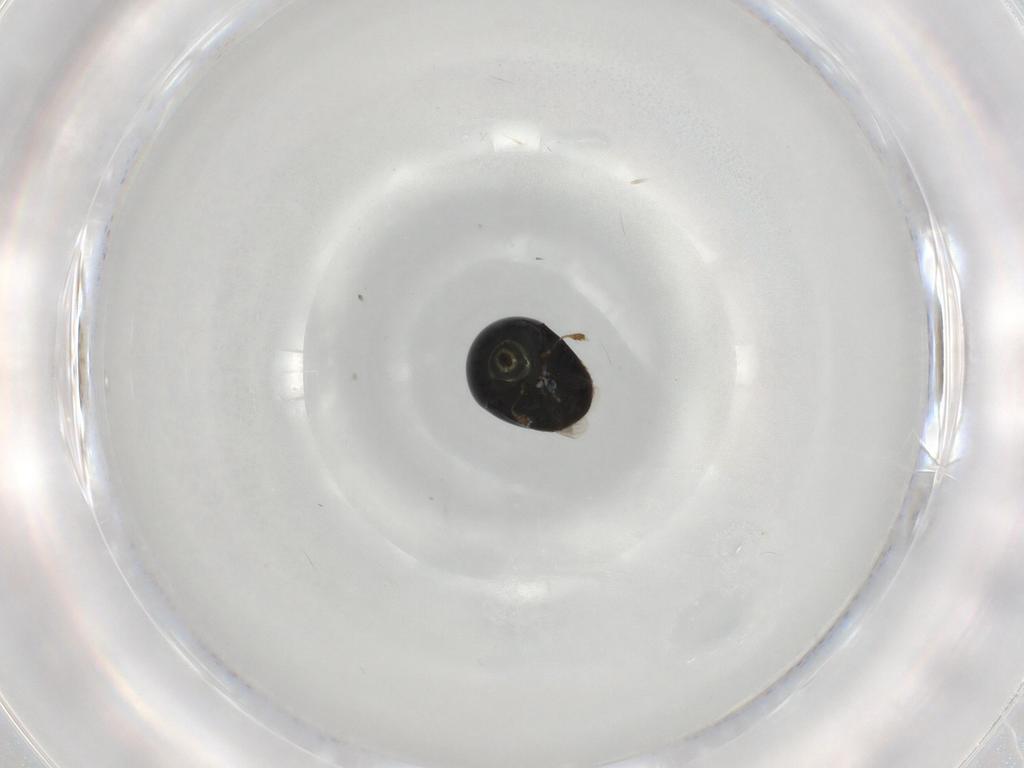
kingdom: Animalia
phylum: Arthropoda
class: Insecta
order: Coleoptera
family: Cybocephalidae
